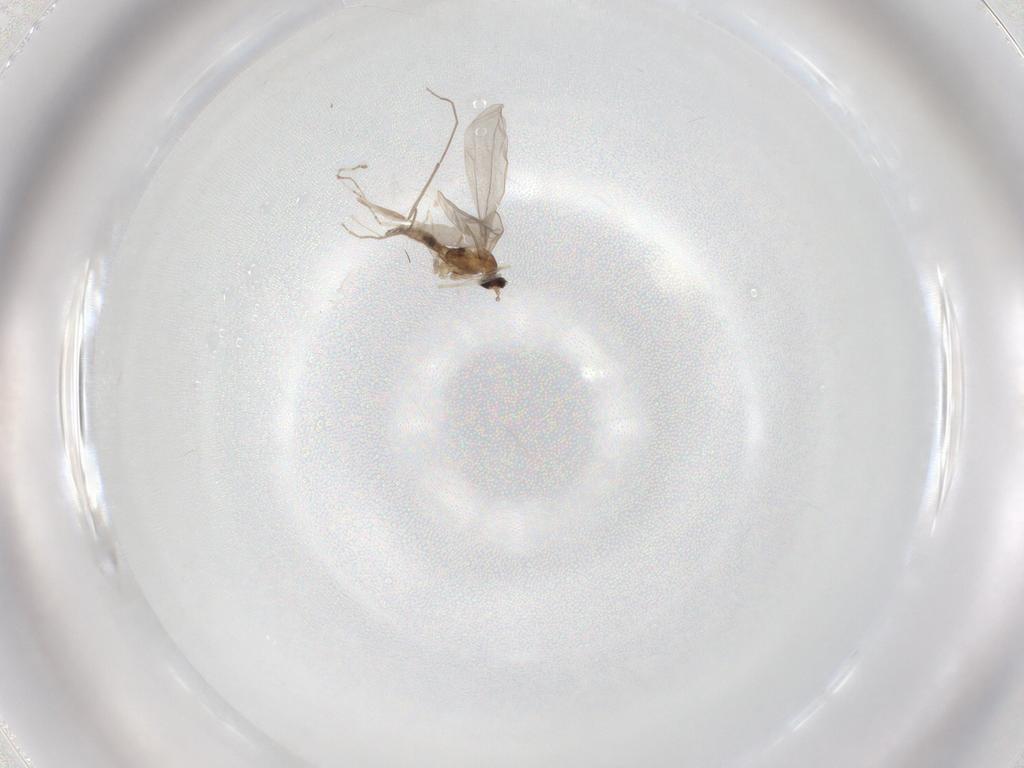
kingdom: Animalia
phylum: Arthropoda
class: Insecta
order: Diptera
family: Cecidomyiidae
